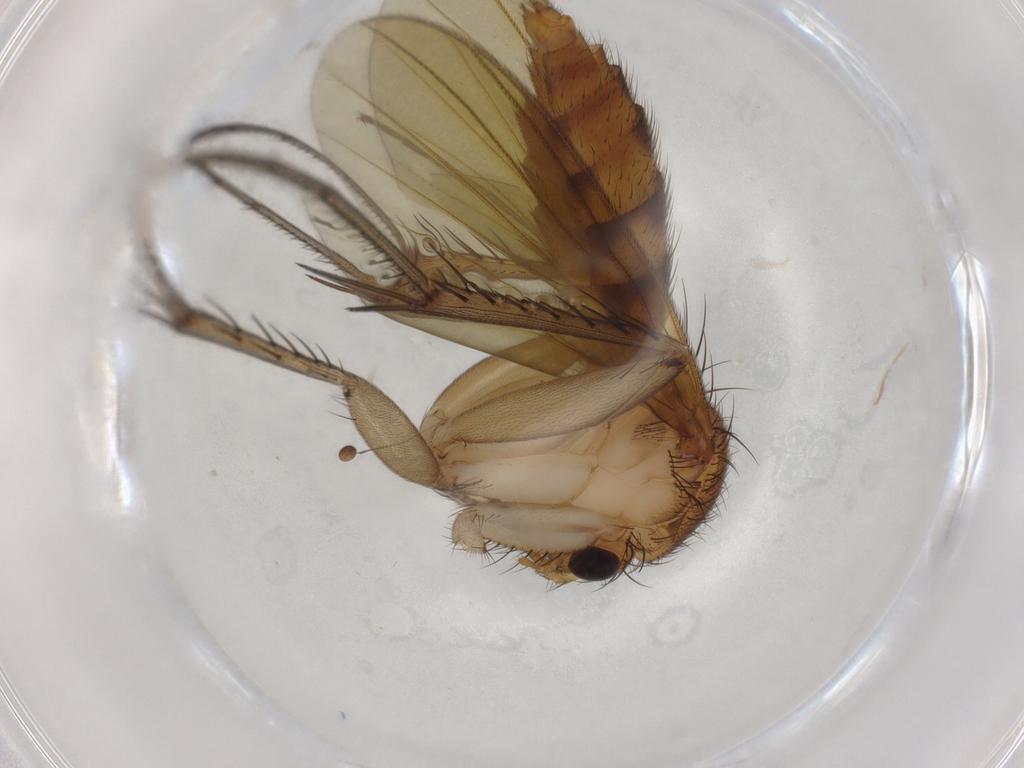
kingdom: Animalia
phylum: Arthropoda
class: Insecta
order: Diptera
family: Mycetophilidae
